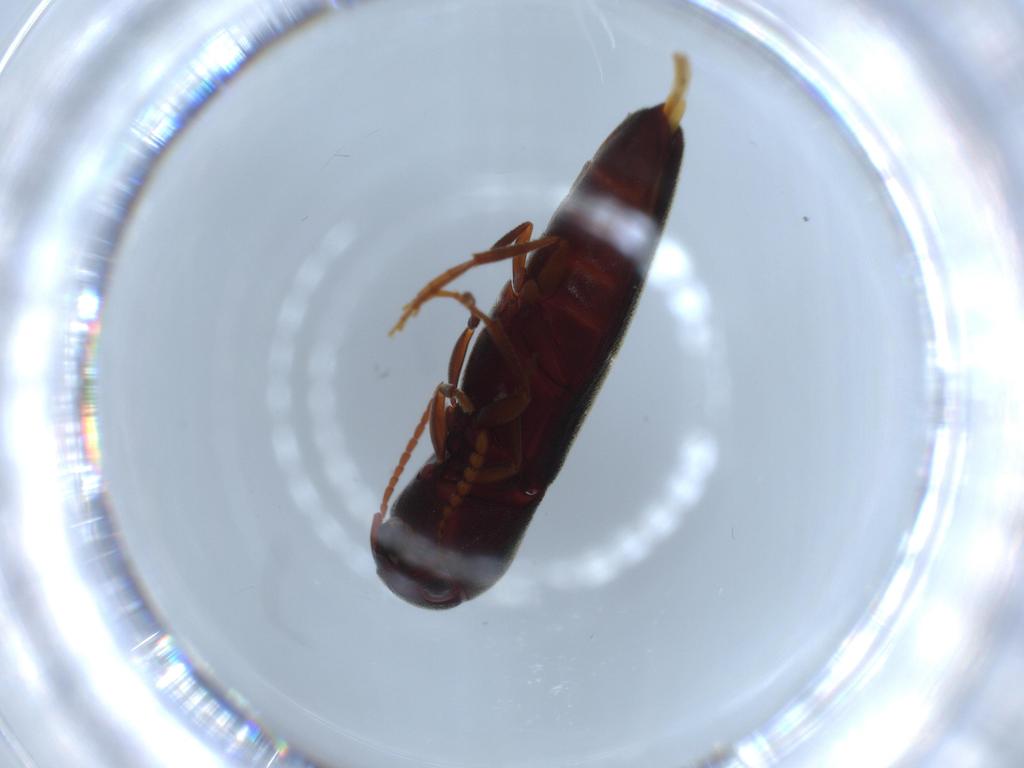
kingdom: Animalia
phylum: Arthropoda
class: Insecta
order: Coleoptera
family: Eucnemidae
